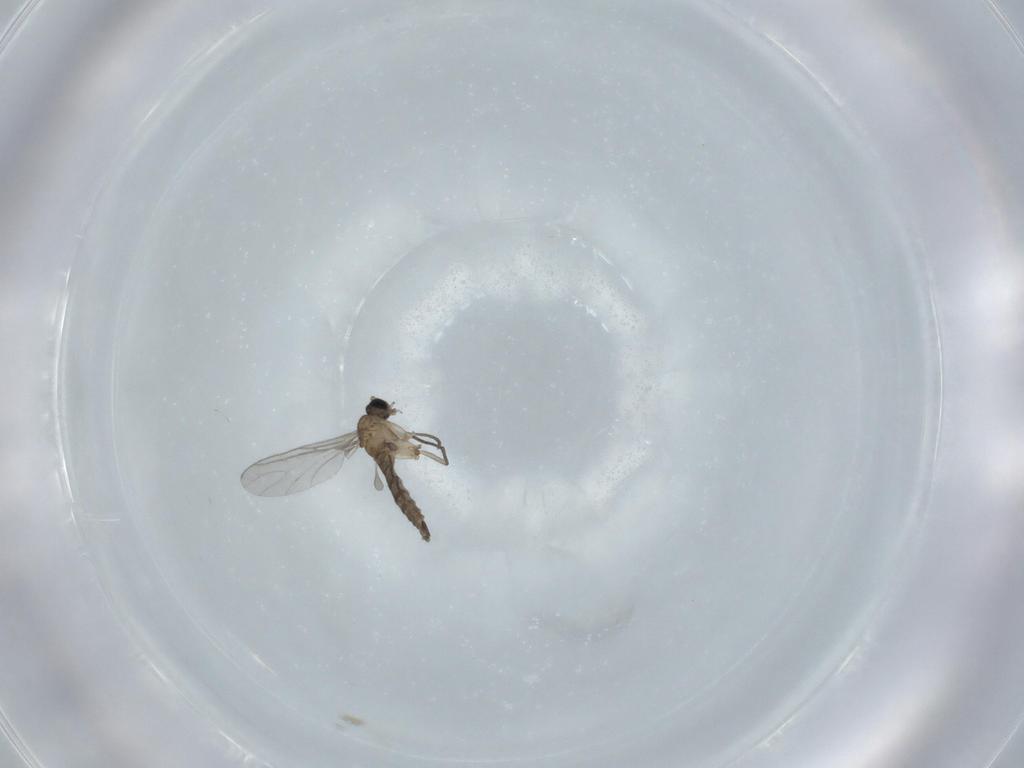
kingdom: Animalia
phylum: Arthropoda
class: Insecta
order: Diptera
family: Sciaridae
